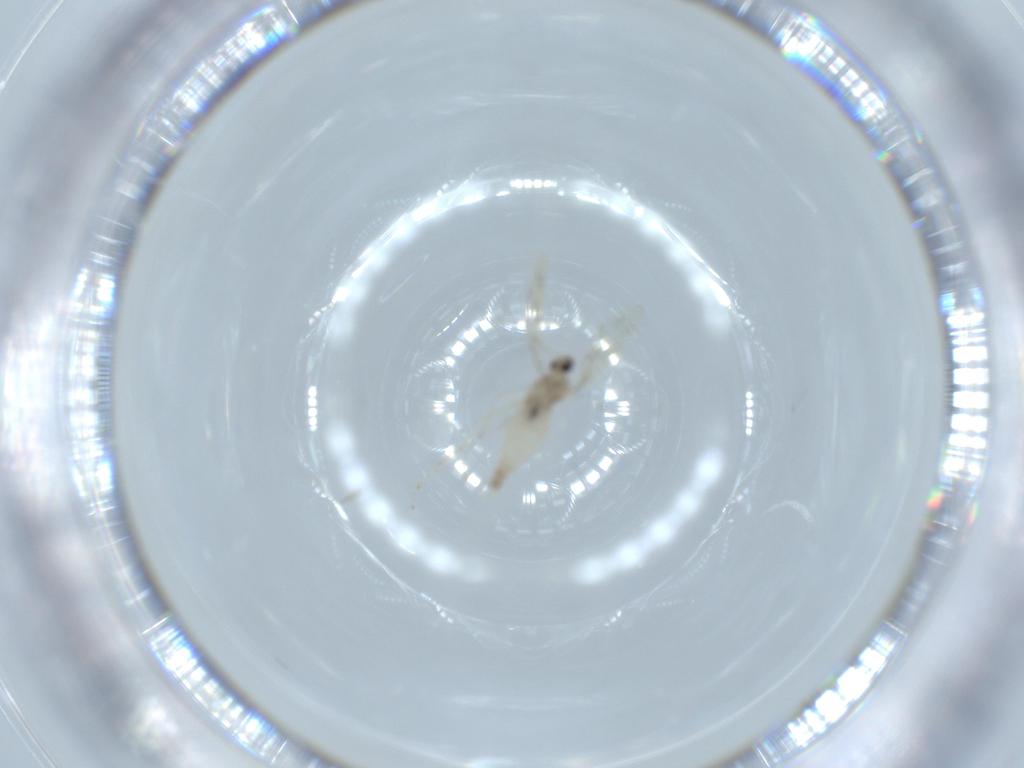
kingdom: Animalia
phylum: Arthropoda
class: Insecta
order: Diptera
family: Cecidomyiidae
